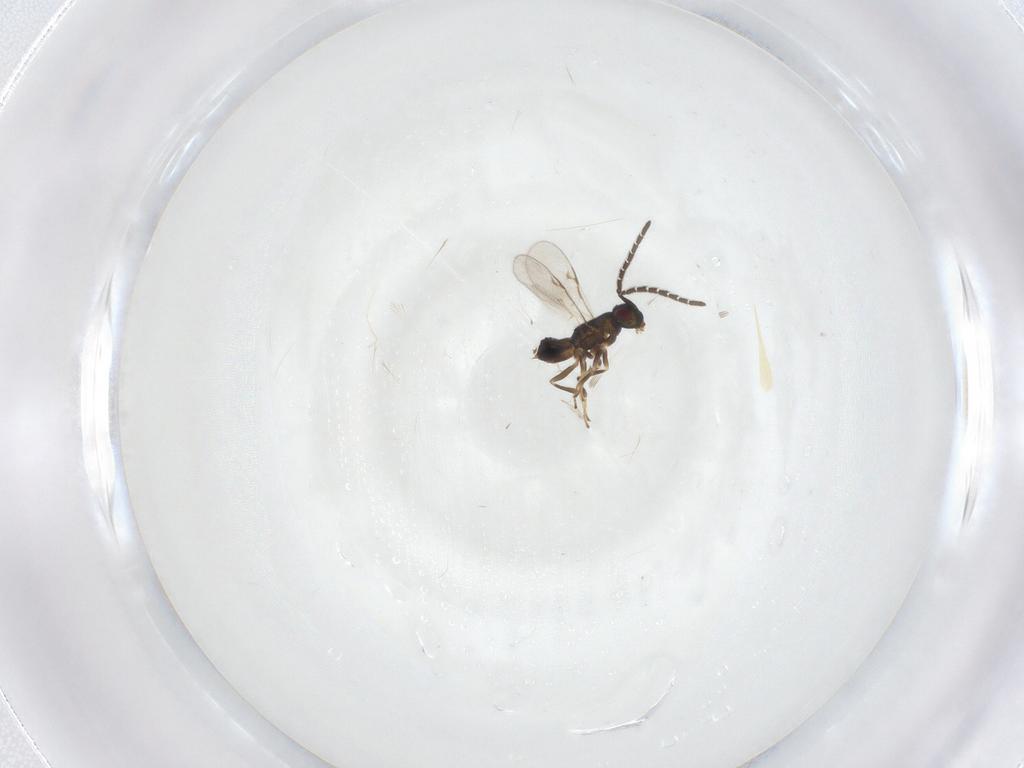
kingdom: Animalia
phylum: Arthropoda
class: Insecta
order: Hymenoptera
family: Encyrtidae
